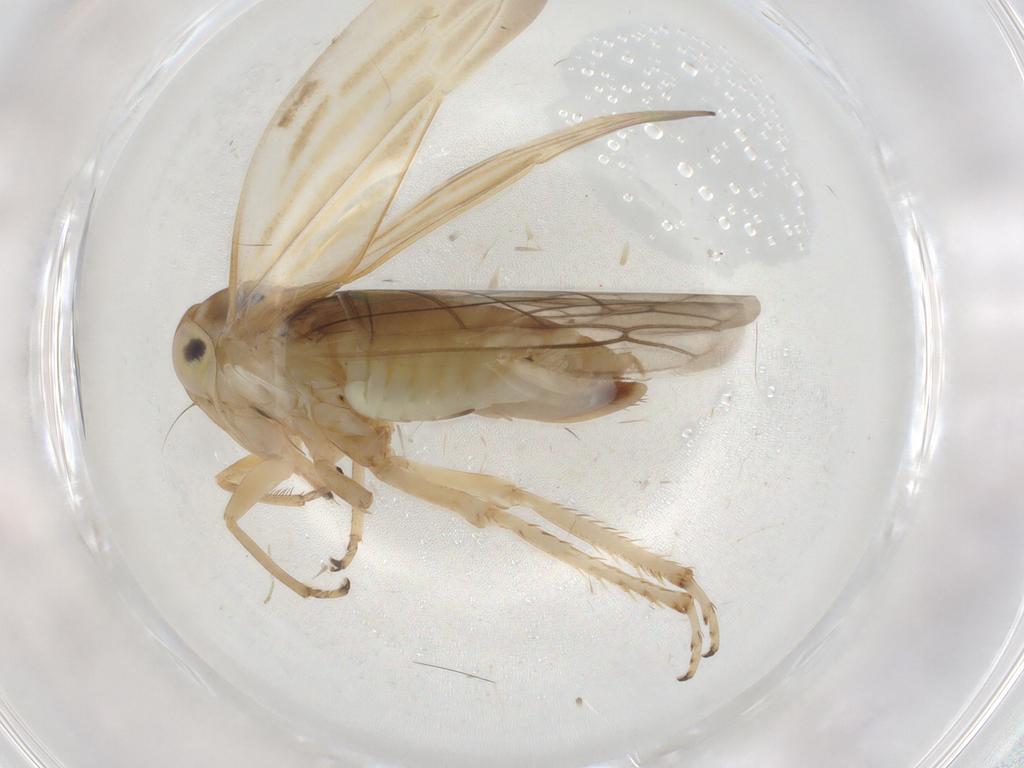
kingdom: Animalia
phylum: Arthropoda
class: Insecta
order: Hemiptera
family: Cicadellidae
